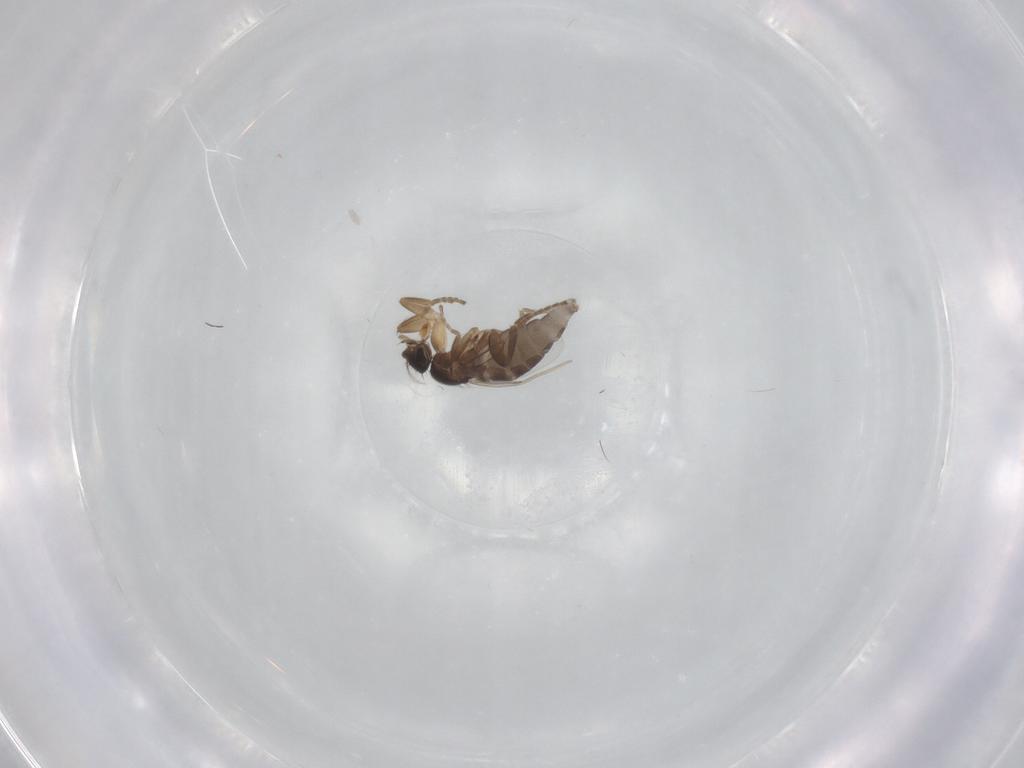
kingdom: Animalia
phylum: Arthropoda
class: Insecta
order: Diptera
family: Phoridae
